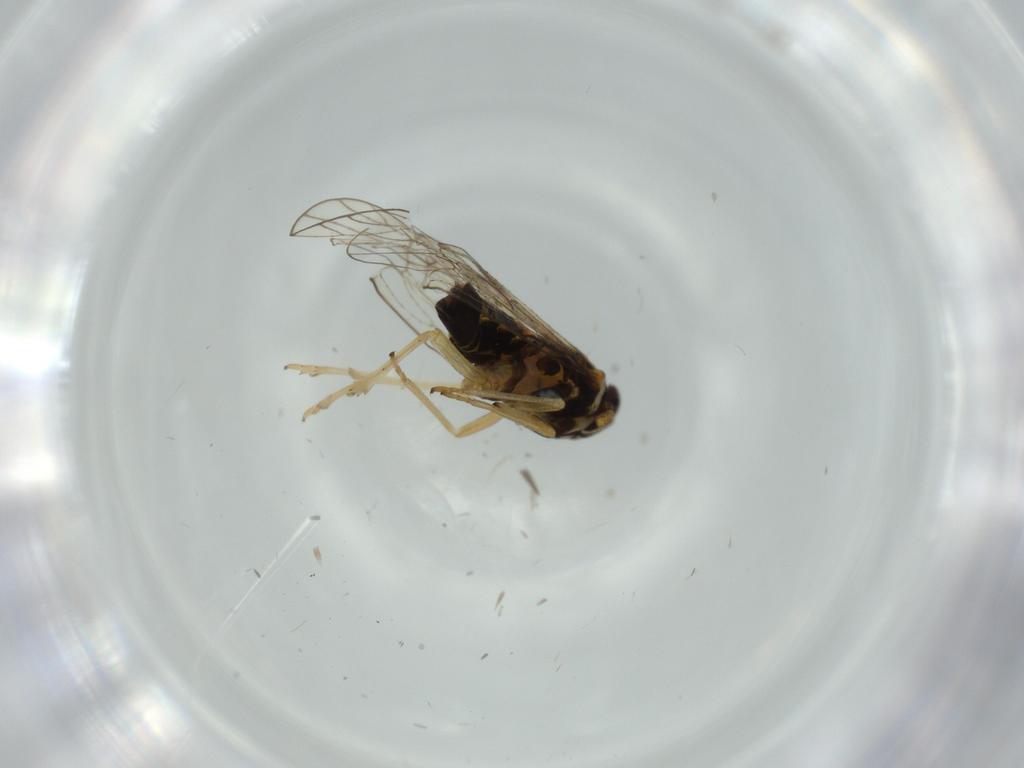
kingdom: Animalia
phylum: Arthropoda
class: Insecta
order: Hemiptera
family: Cicadellidae
